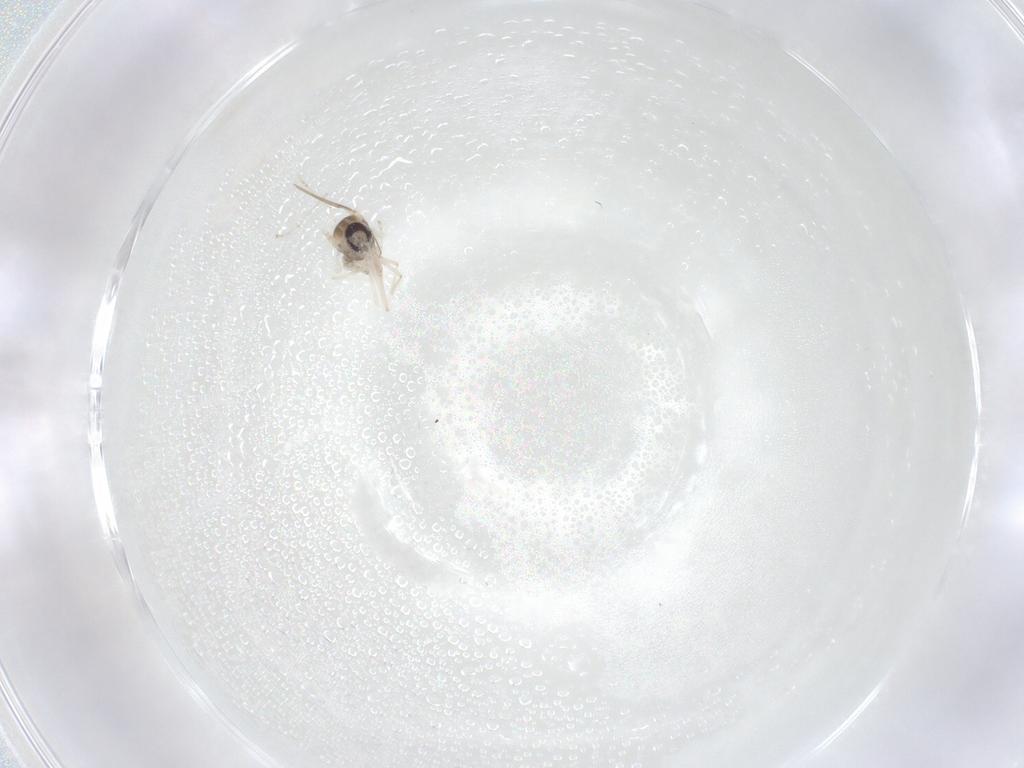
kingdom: Animalia
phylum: Arthropoda
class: Insecta
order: Diptera
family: Cecidomyiidae
